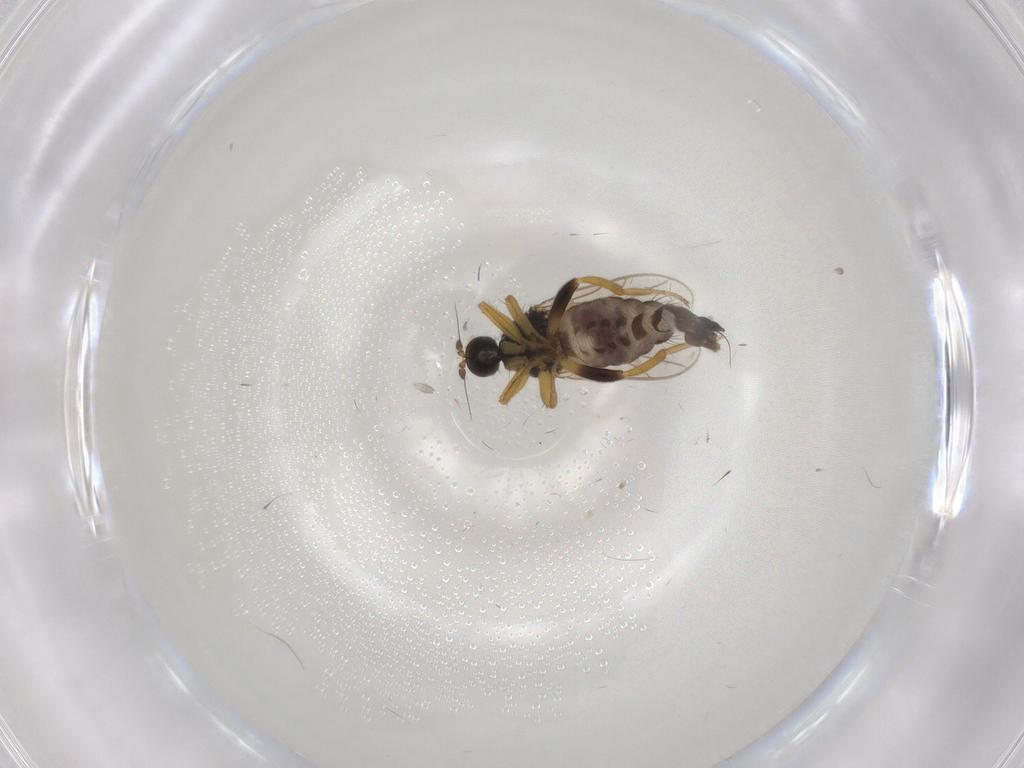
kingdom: Animalia
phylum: Arthropoda
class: Insecta
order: Diptera
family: Hybotidae
